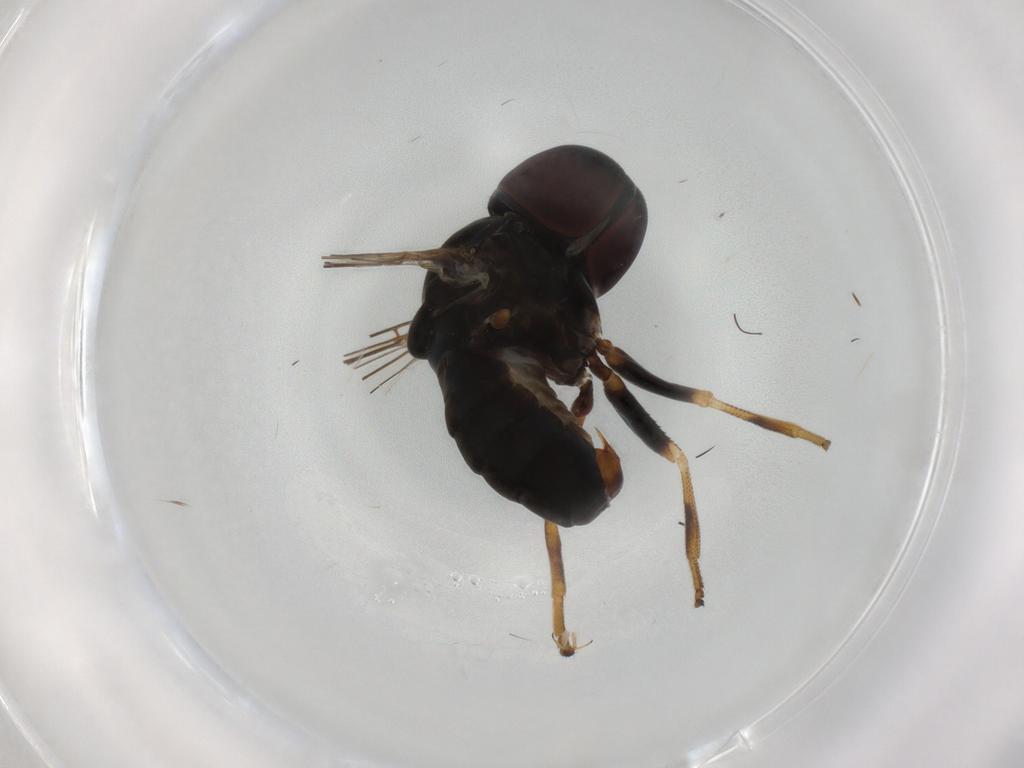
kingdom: Animalia
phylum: Arthropoda
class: Insecta
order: Diptera
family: Pipunculidae
